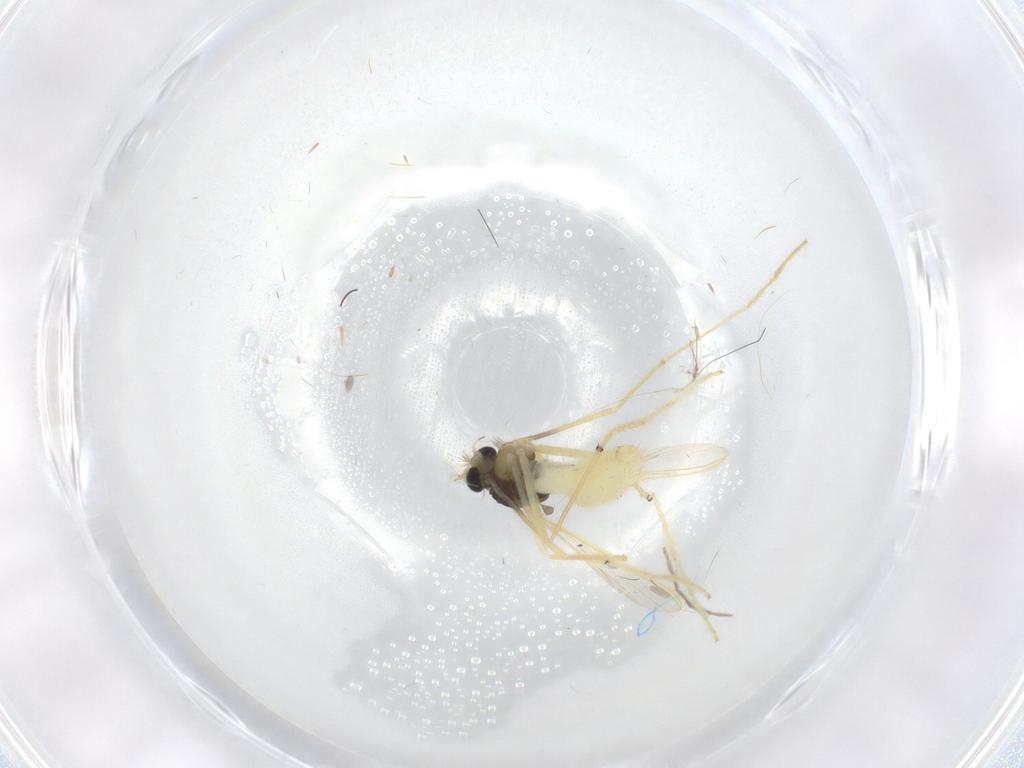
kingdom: Animalia
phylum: Arthropoda
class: Insecta
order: Diptera
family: Chironomidae
